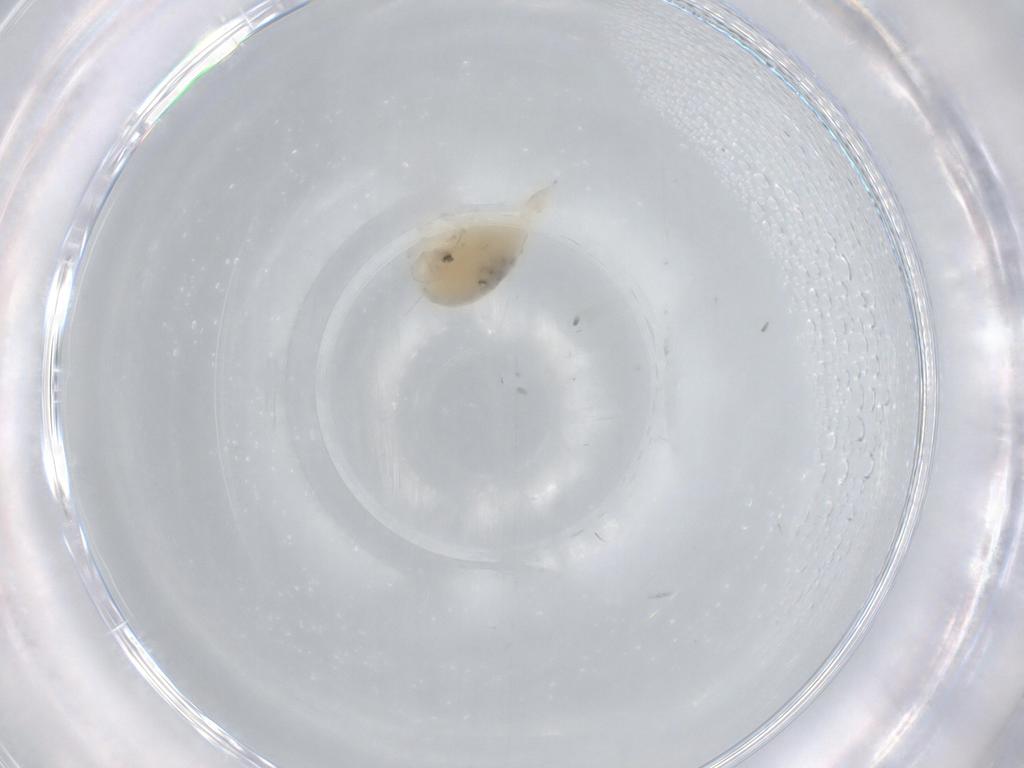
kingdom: Animalia
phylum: Arthropoda
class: Arachnida
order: Trombidiformes
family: Bdellidae
